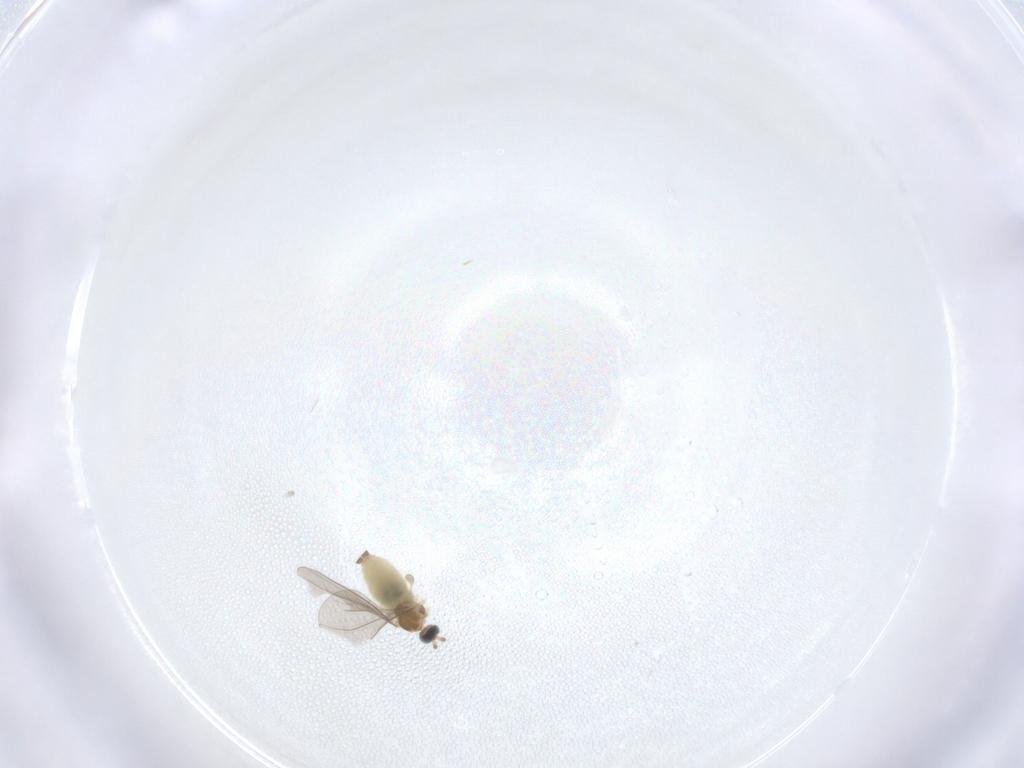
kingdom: Animalia
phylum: Arthropoda
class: Insecta
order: Diptera
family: Cecidomyiidae
